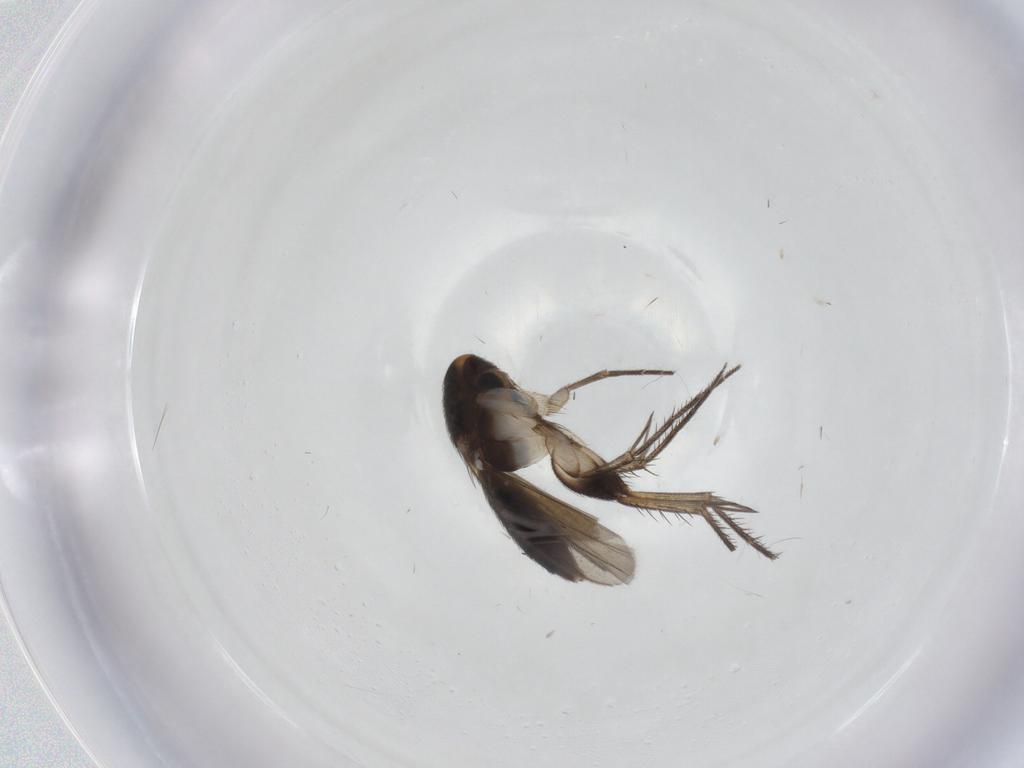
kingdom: Animalia
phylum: Arthropoda
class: Insecta
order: Diptera
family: Mycetophilidae
